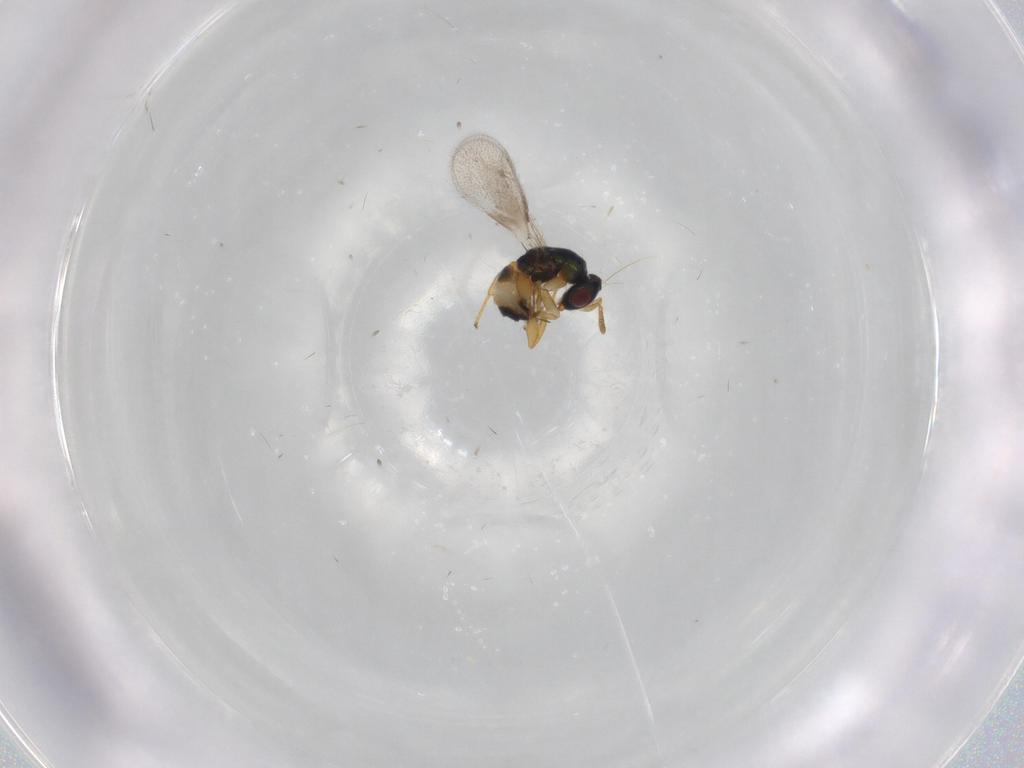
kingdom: Animalia
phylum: Arthropoda
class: Insecta
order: Hymenoptera
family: Torymidae
